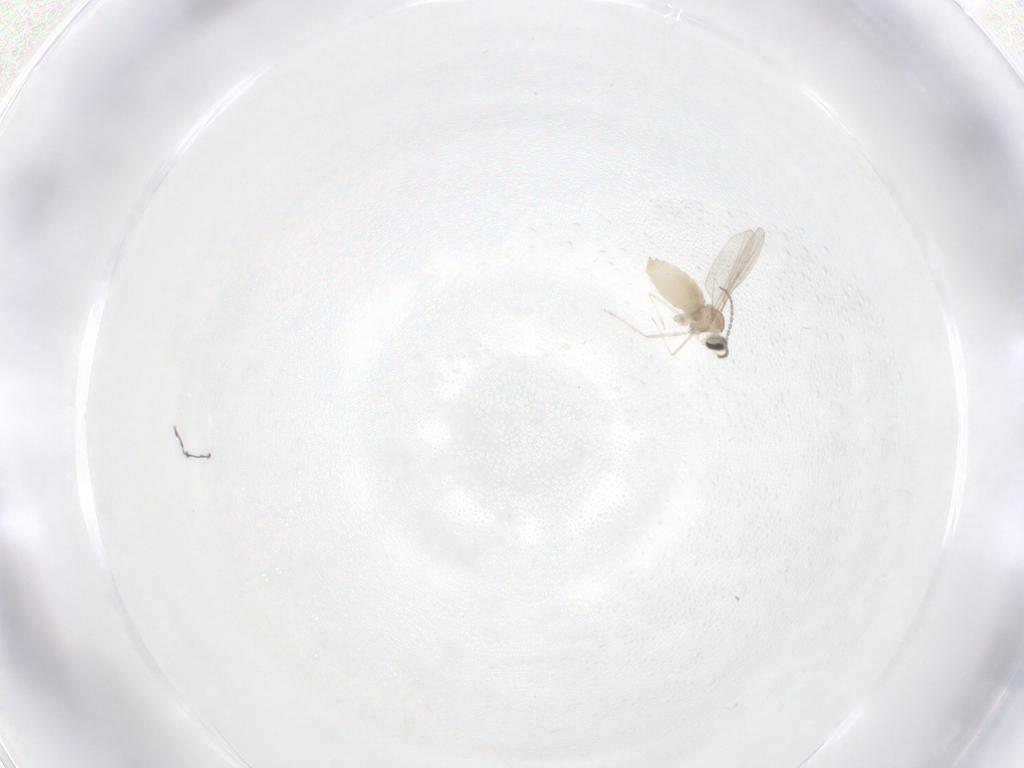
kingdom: Animalia
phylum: Arthropoda
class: Insecta
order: Diptera
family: Cecidomyiidae
